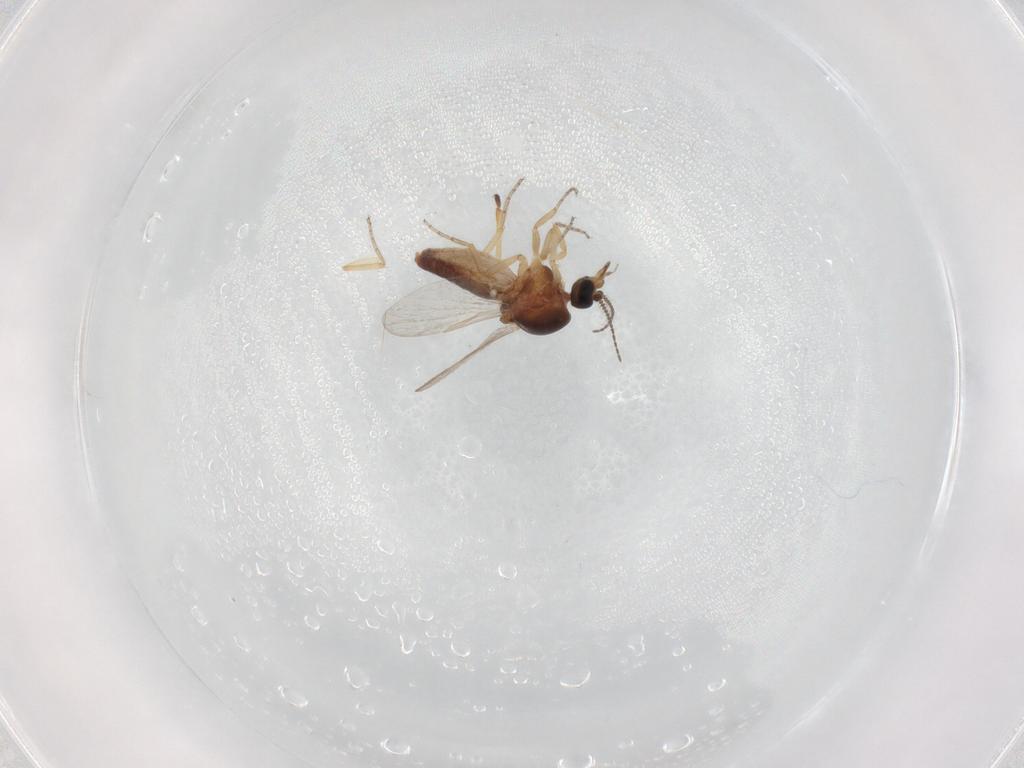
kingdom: Animalia
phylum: Arthropoda
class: Insecta
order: Diptera
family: Ceratopogonidae
